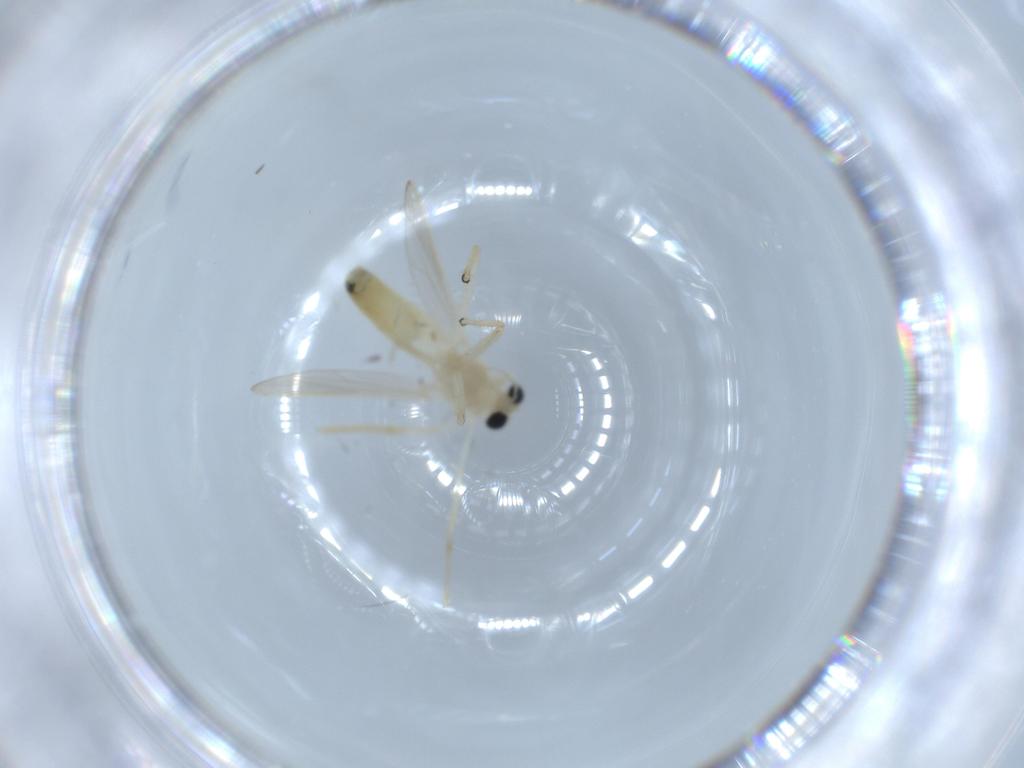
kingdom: Animalia
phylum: Arthropoda
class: Insecta
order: Diptera
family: Chironomidae
